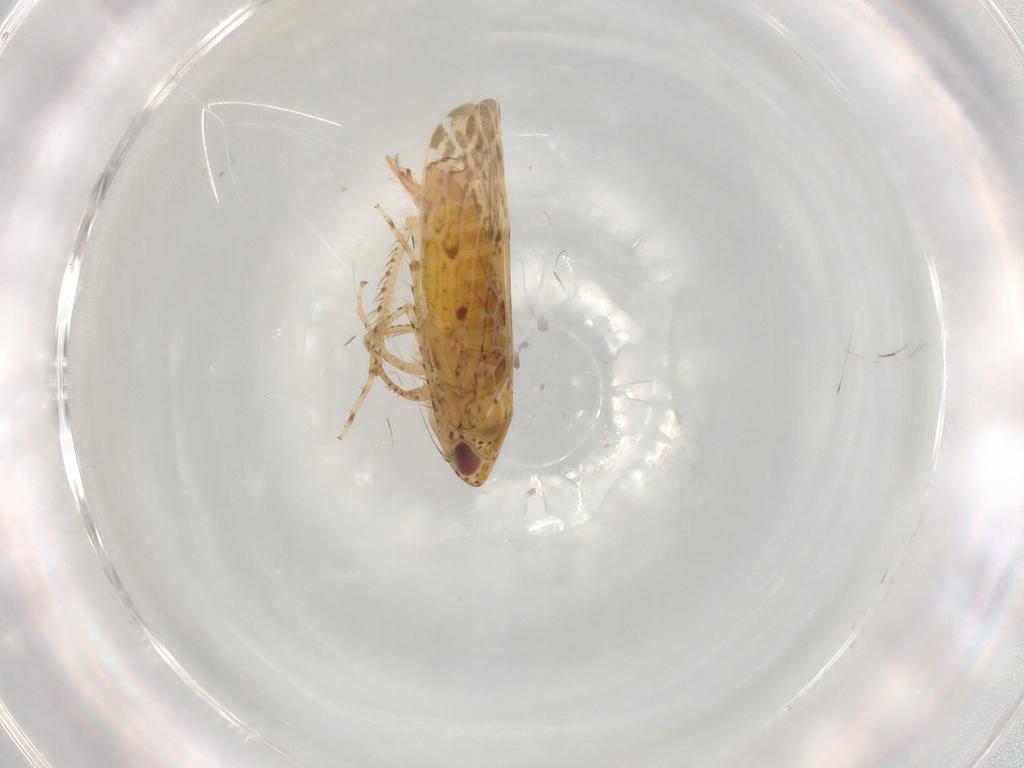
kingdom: Animalia
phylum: Arthropoda
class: Insecta
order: Hemiptera
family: Cicadellidae
